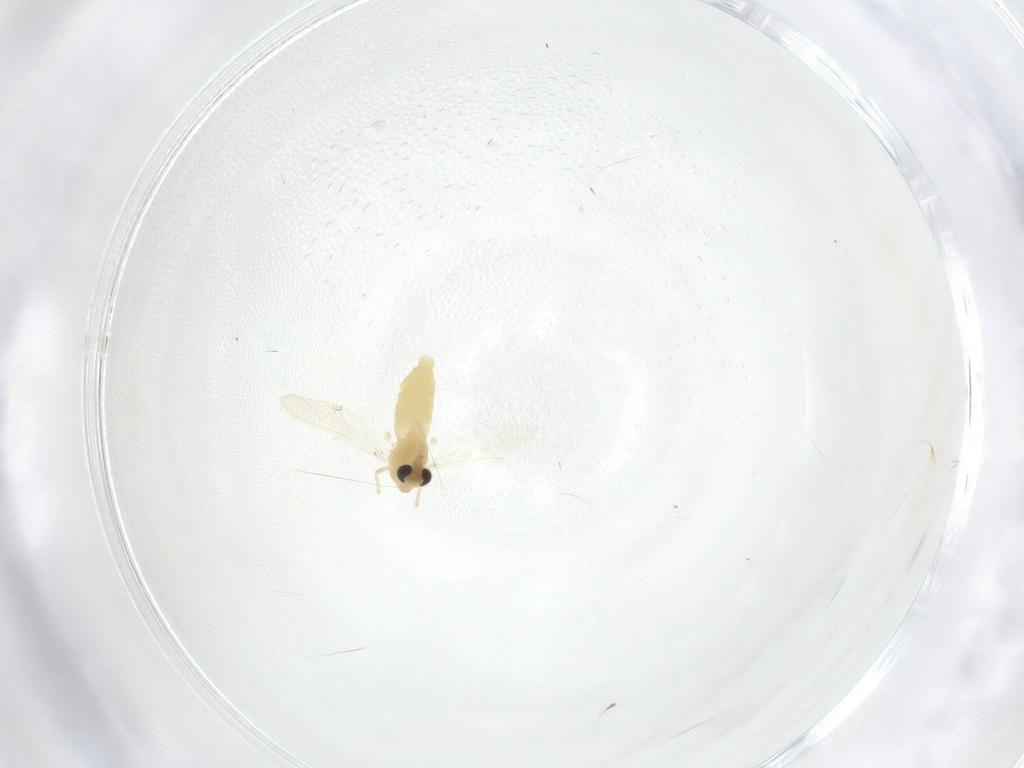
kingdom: Animalia
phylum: Arthropoda
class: Insecta
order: Diptera
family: Chironomidae
